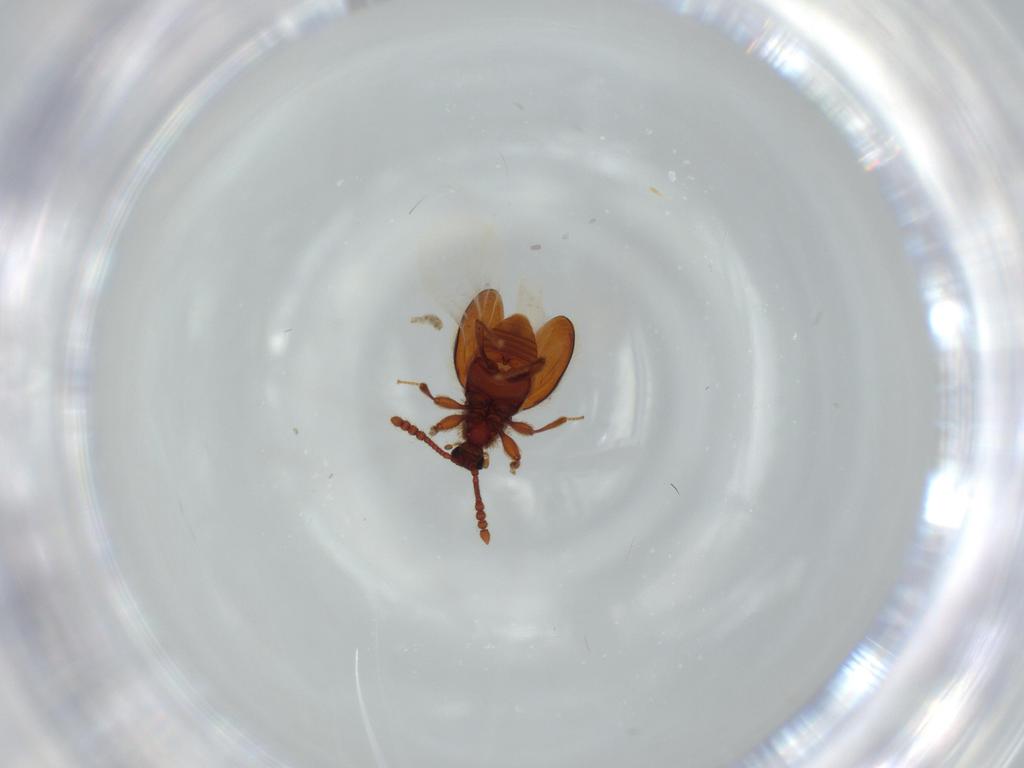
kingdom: Animalia
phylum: Arthropoda
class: Insecta
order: Coleoptera
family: Staphylinidae
